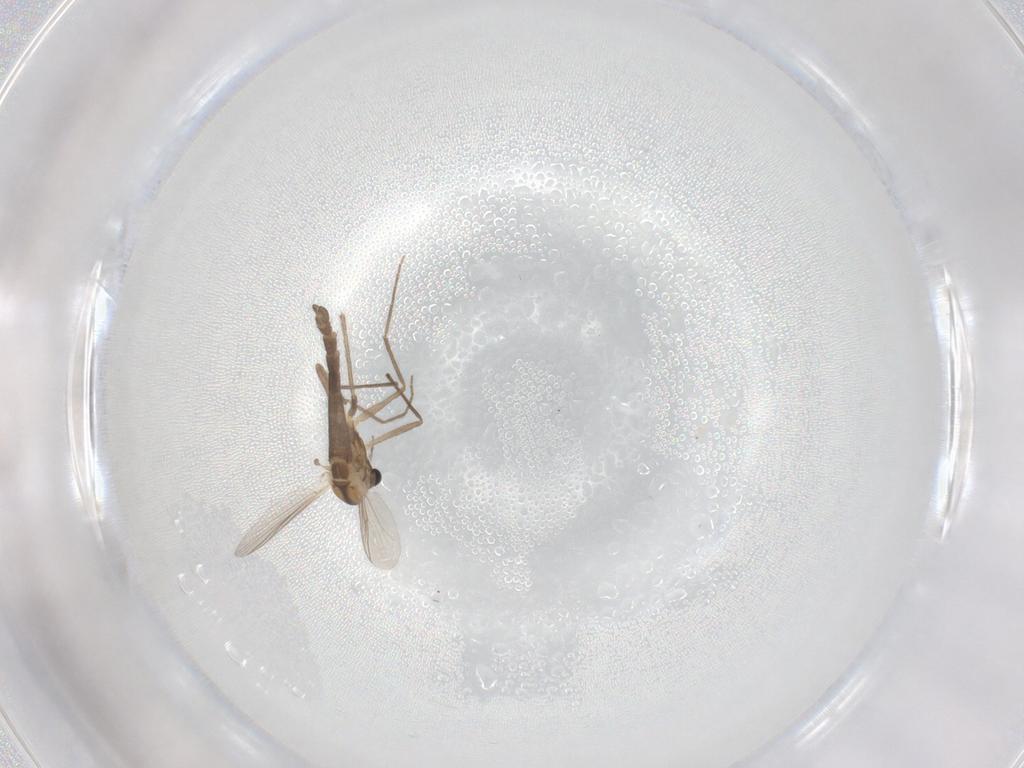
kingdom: Animalia
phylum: Arthropoda
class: Insecta
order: Diptera
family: Chironomidae
